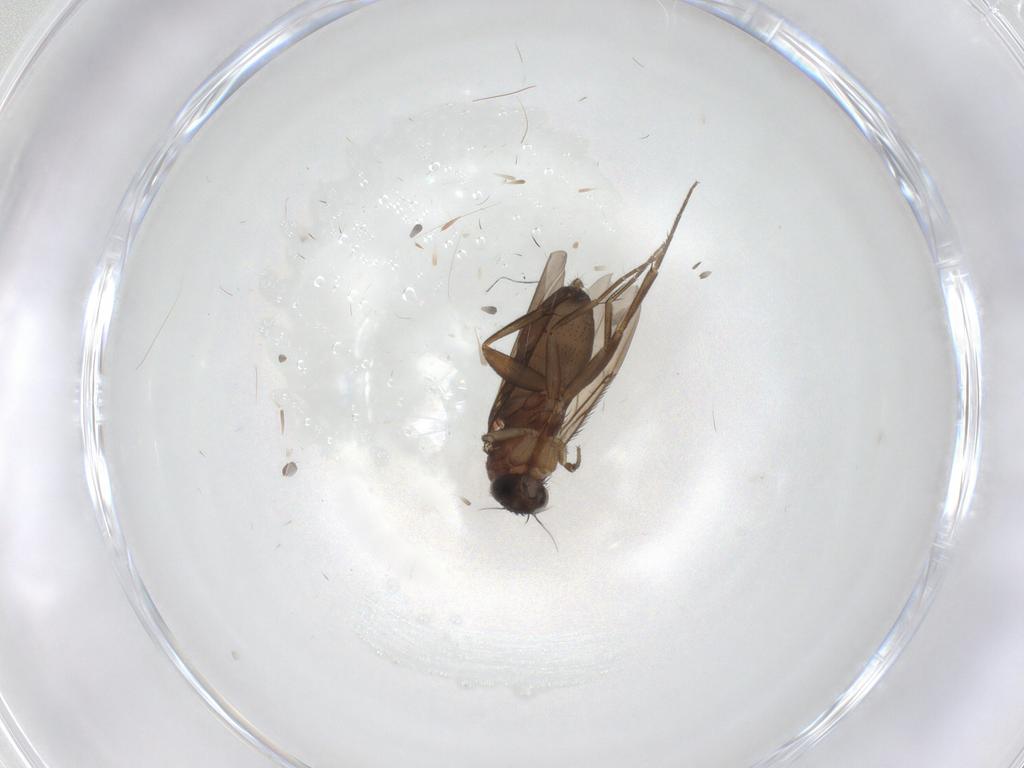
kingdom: Animalia
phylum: Arthropoda
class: Insecta
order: Diptera
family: Phoridae
